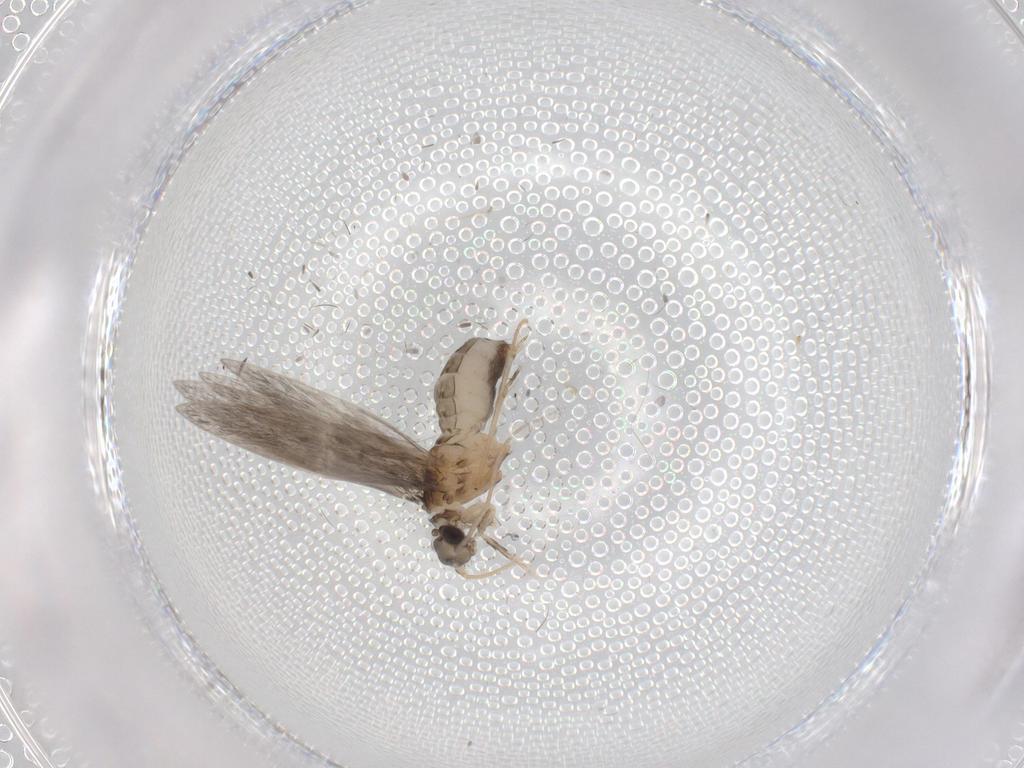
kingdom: Animalia
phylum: Arthropoda
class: Insecta
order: Trichoptera
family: Hydroptilidae
